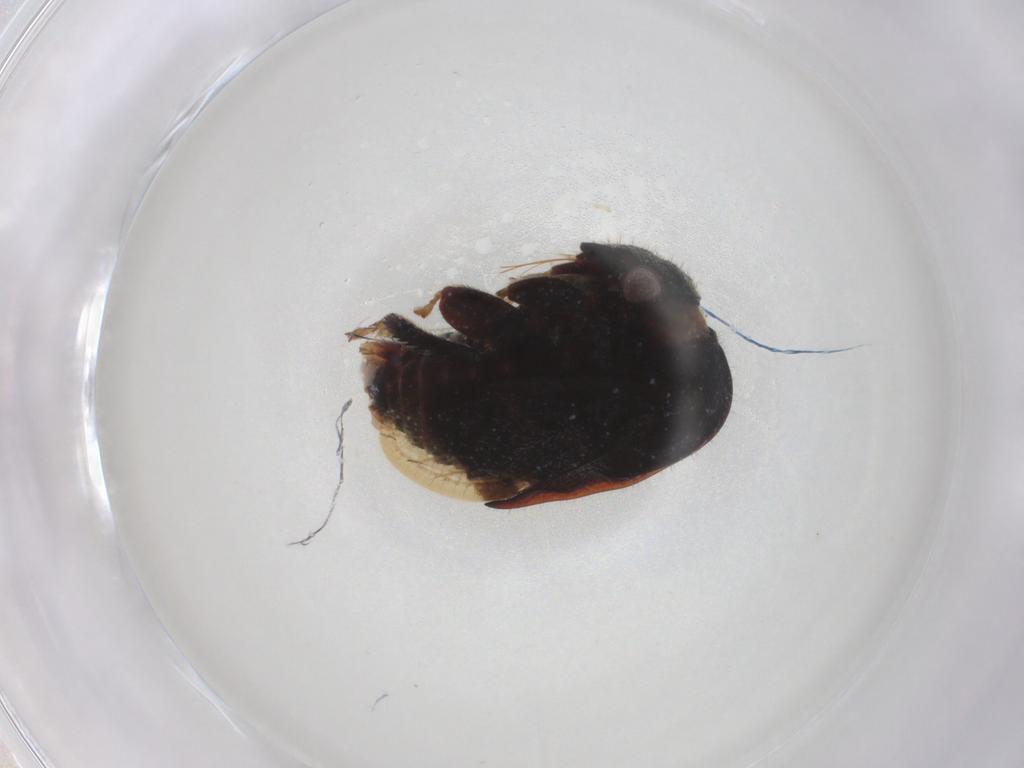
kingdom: Animalia
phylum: Arthropoda
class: Insecta
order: Hemiptera
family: Membracidae
